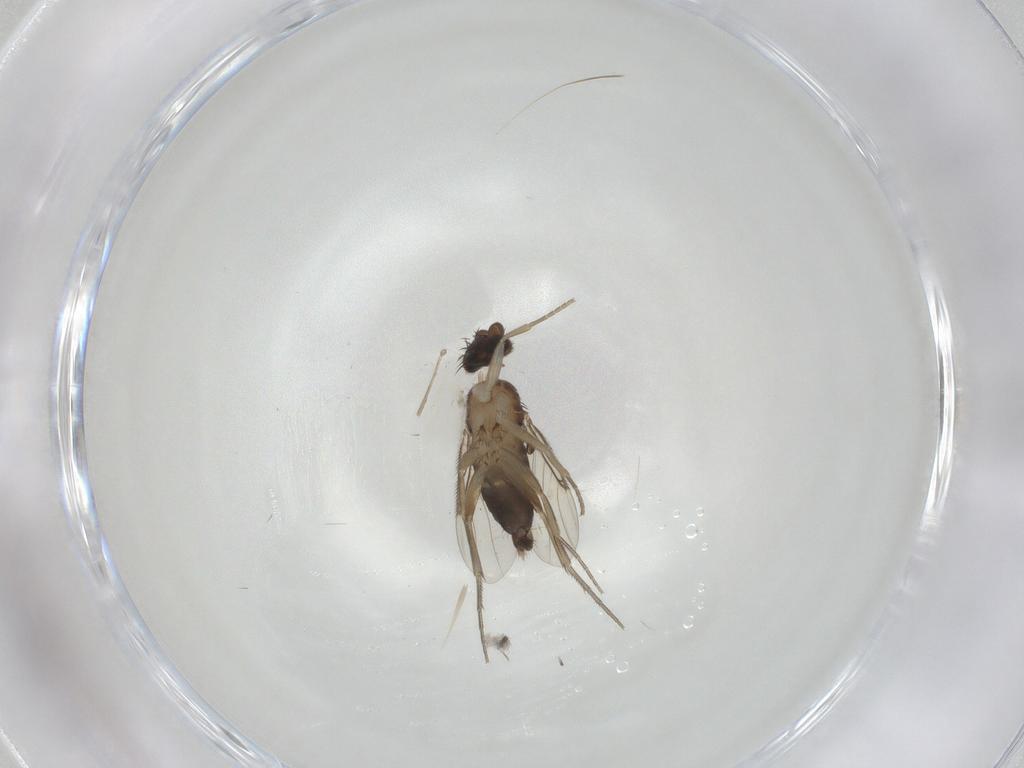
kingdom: Animalia
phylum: Arthropoda
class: Insecta
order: Diptera
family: Phoridae
